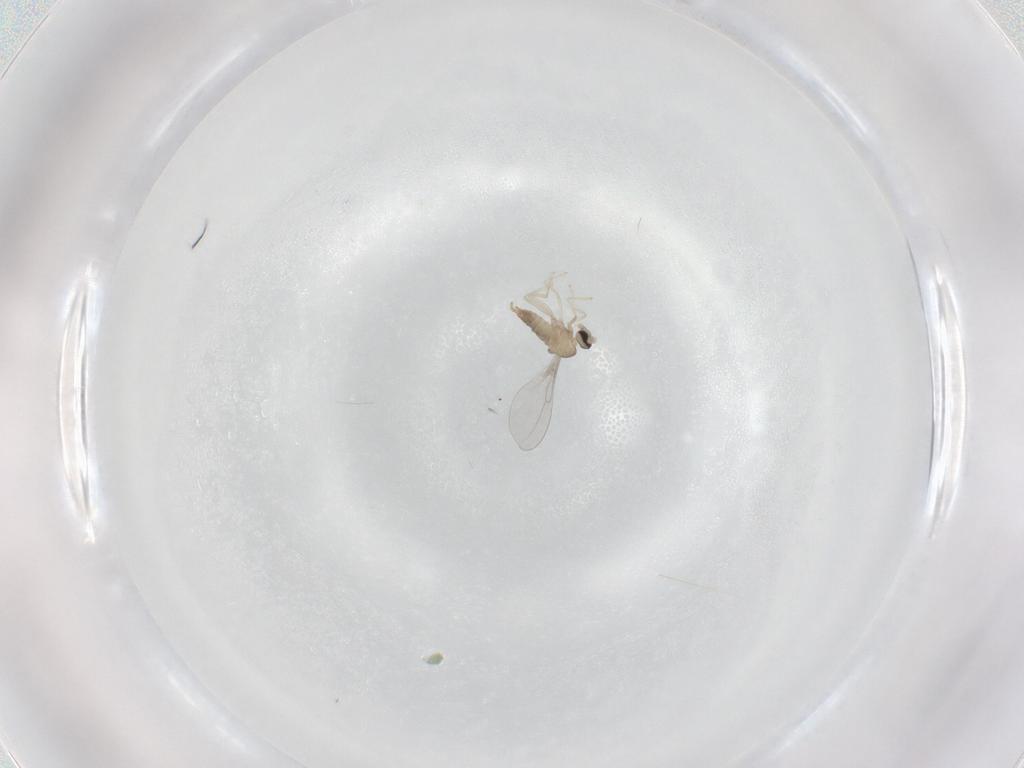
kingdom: Animalia
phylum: Arthropoda
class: Insecta
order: Diptera
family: Cecidomyiidae
